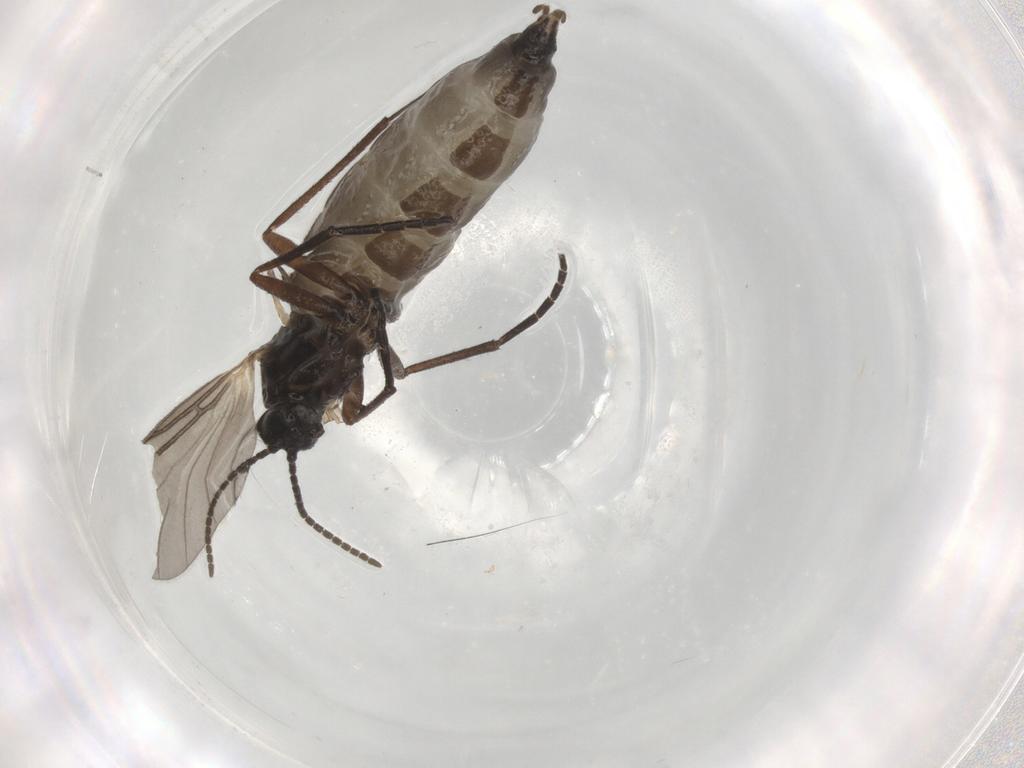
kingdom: Animalia
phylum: Arthropoda
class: Insecta
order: Diptera
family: Sciaridae
